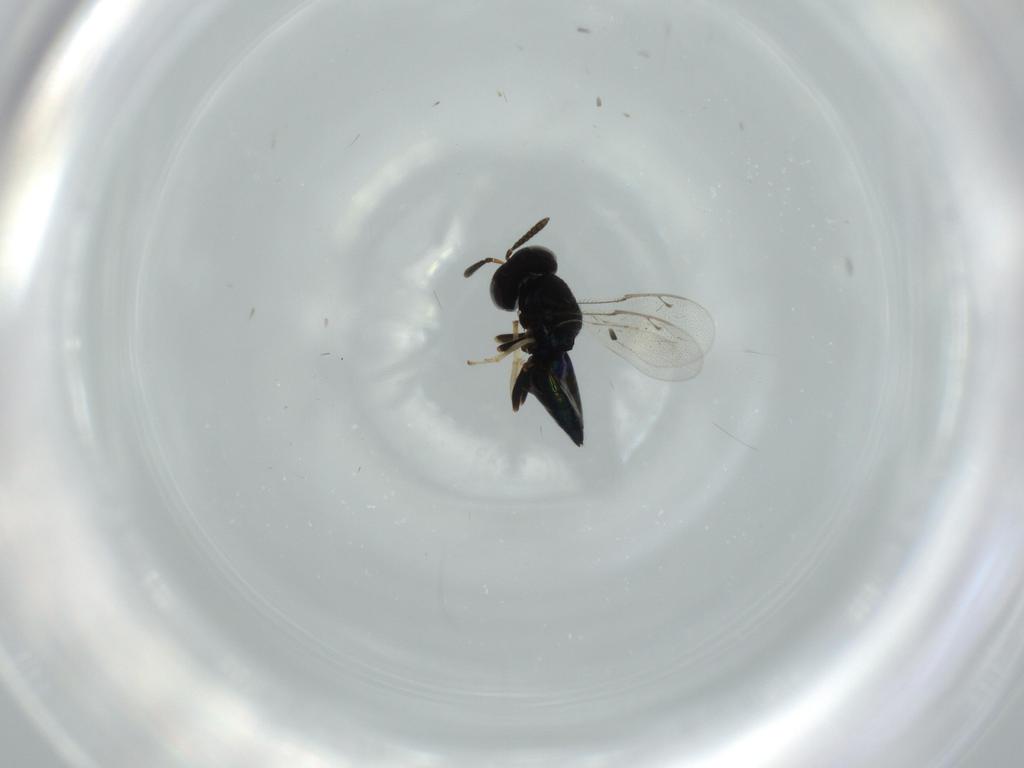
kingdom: Animalia
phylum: Arthropoda
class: Insecta
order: Hymenoptera
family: Pteromalidae
